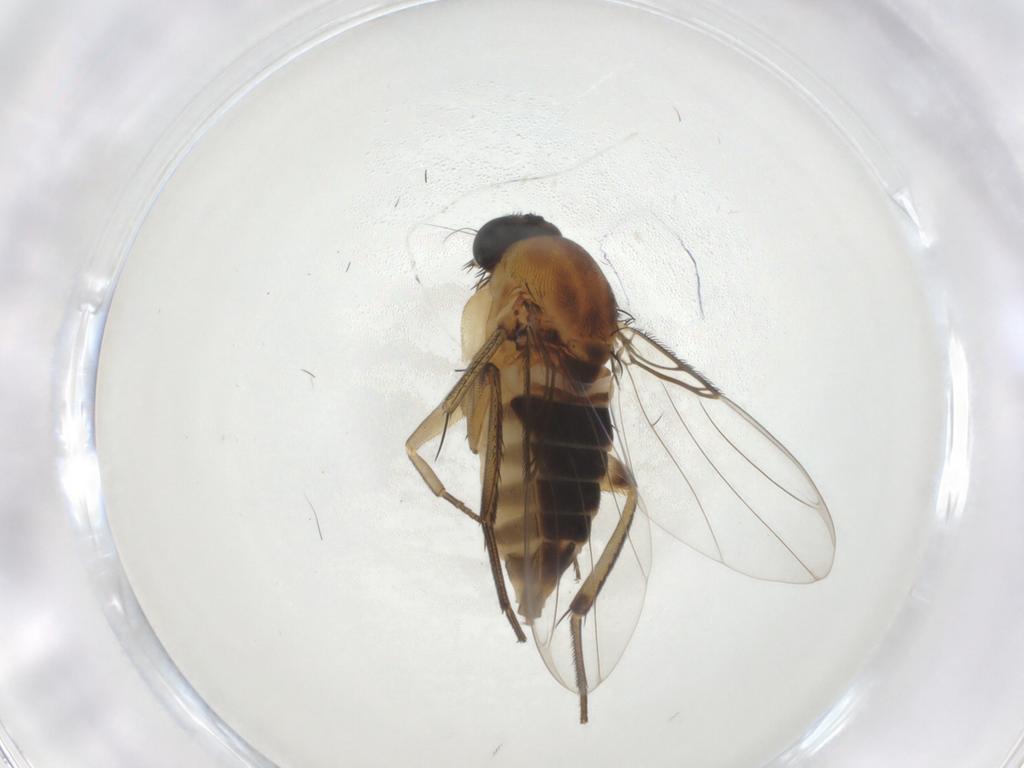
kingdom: Animalia
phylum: Arthropoda
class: Insecta
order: Diptera
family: Phoridae
